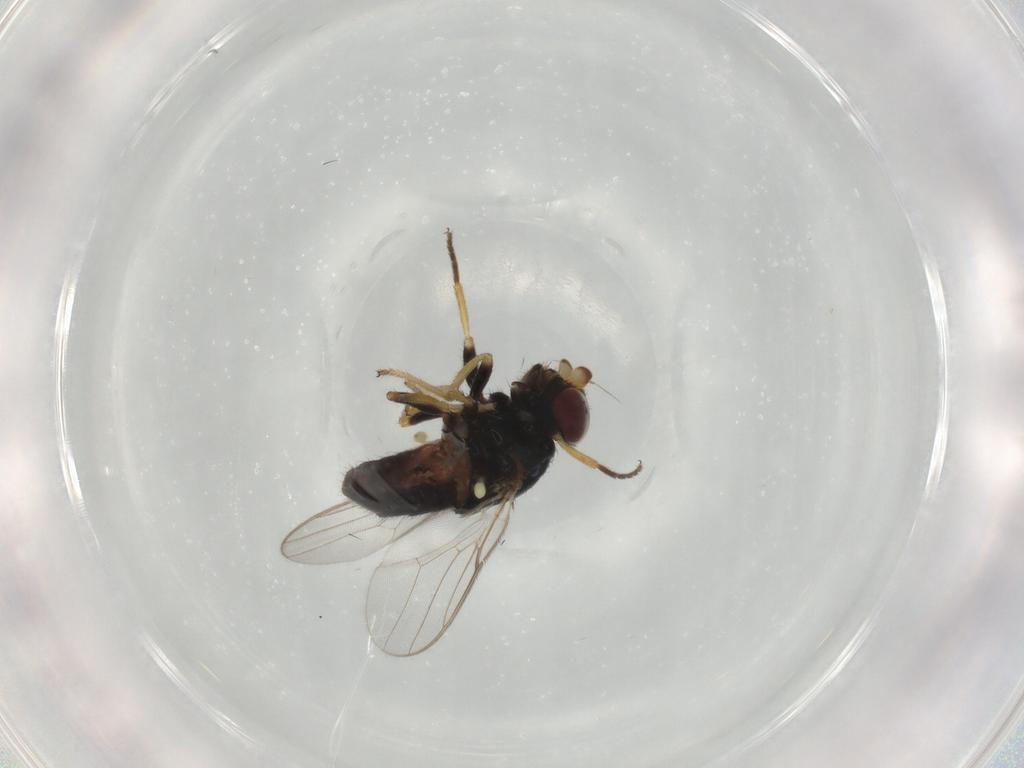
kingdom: Animalia
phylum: Arthropoda
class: Insecta
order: Diptera
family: Chloropidae
